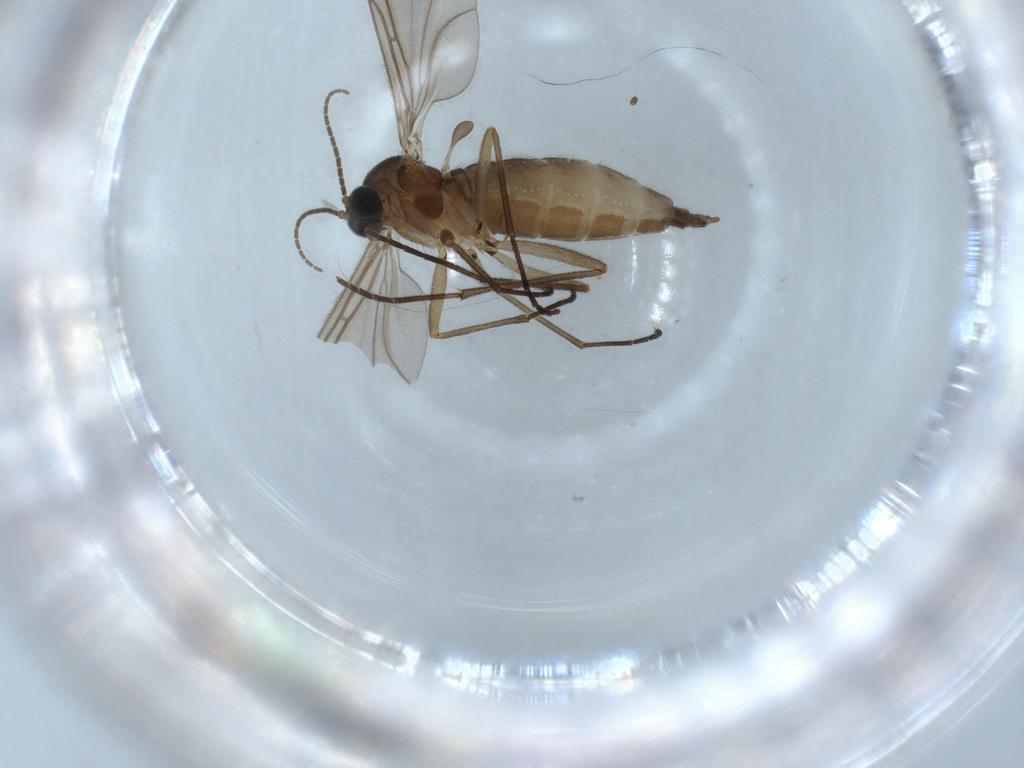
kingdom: Animalia
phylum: Arthropoda
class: Insecta
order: Diptera
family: Sciaridae
